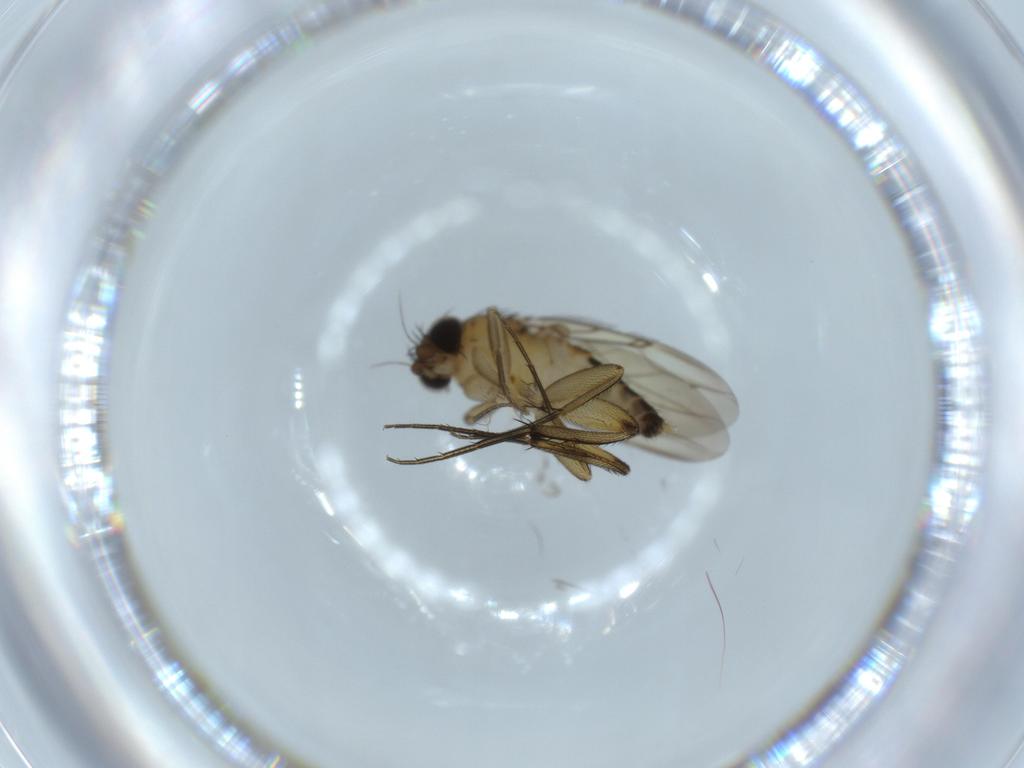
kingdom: Animalia
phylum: Arthropoda
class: Insecta
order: Diptera
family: Phoridae
